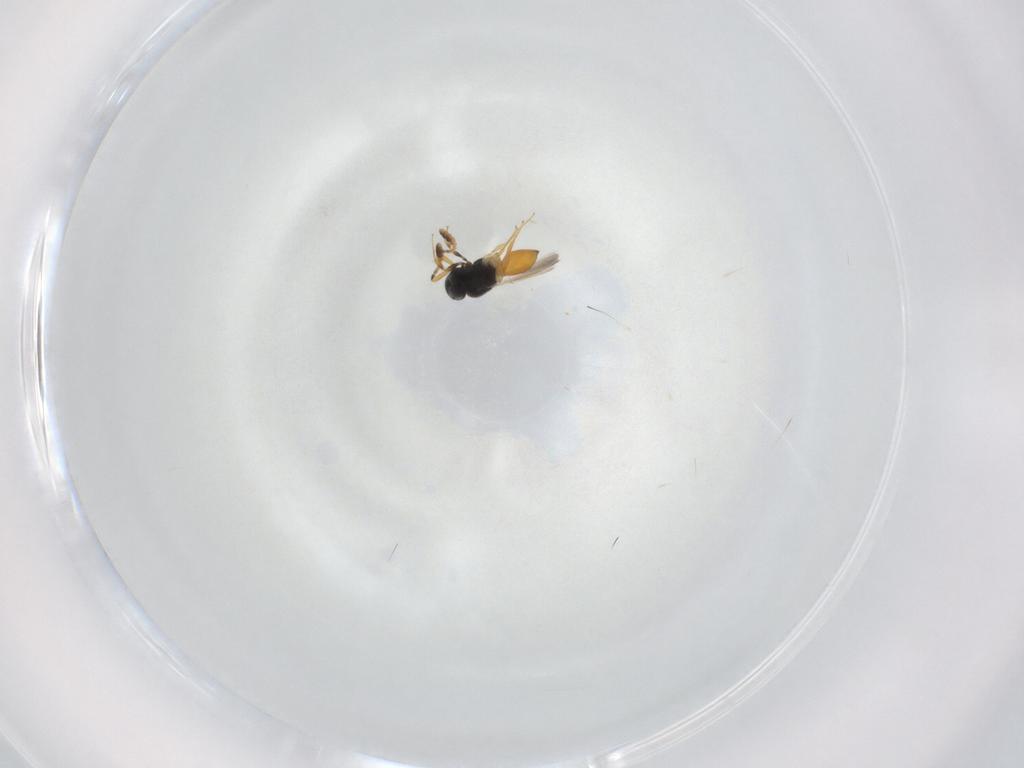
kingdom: Animalia
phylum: Arthropoda
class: Insecta
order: Hymenoptera
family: Scelionidae
